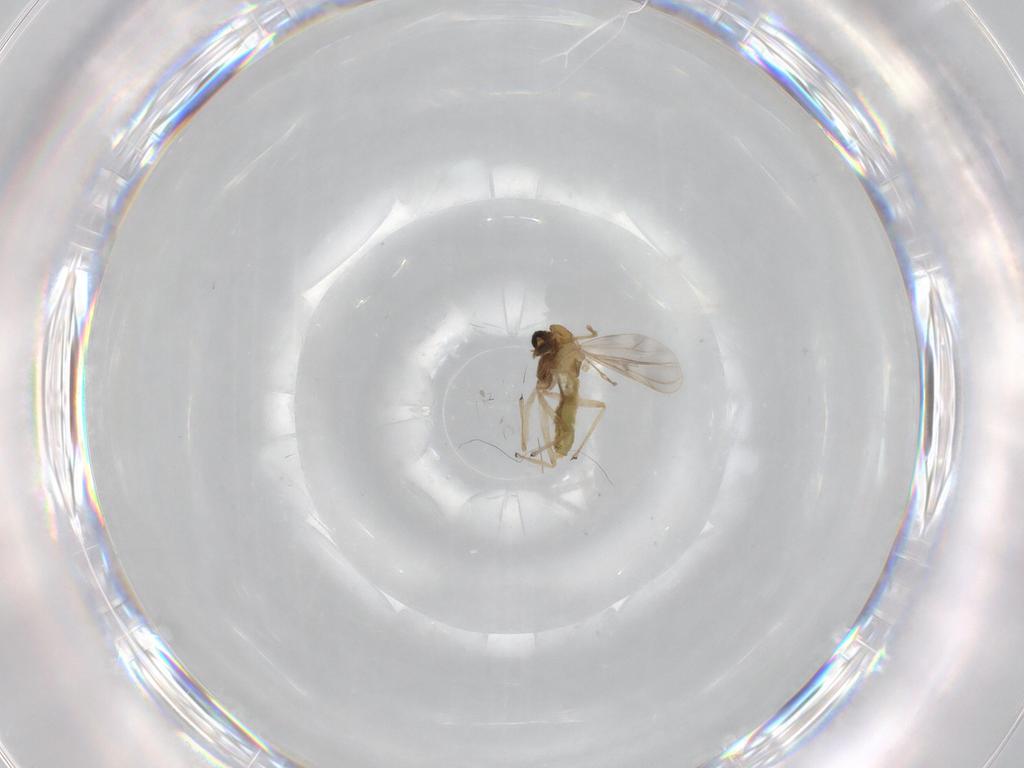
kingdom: Animalia
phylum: Arthropoda
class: Insecta
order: Diptera
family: Chironomidae
